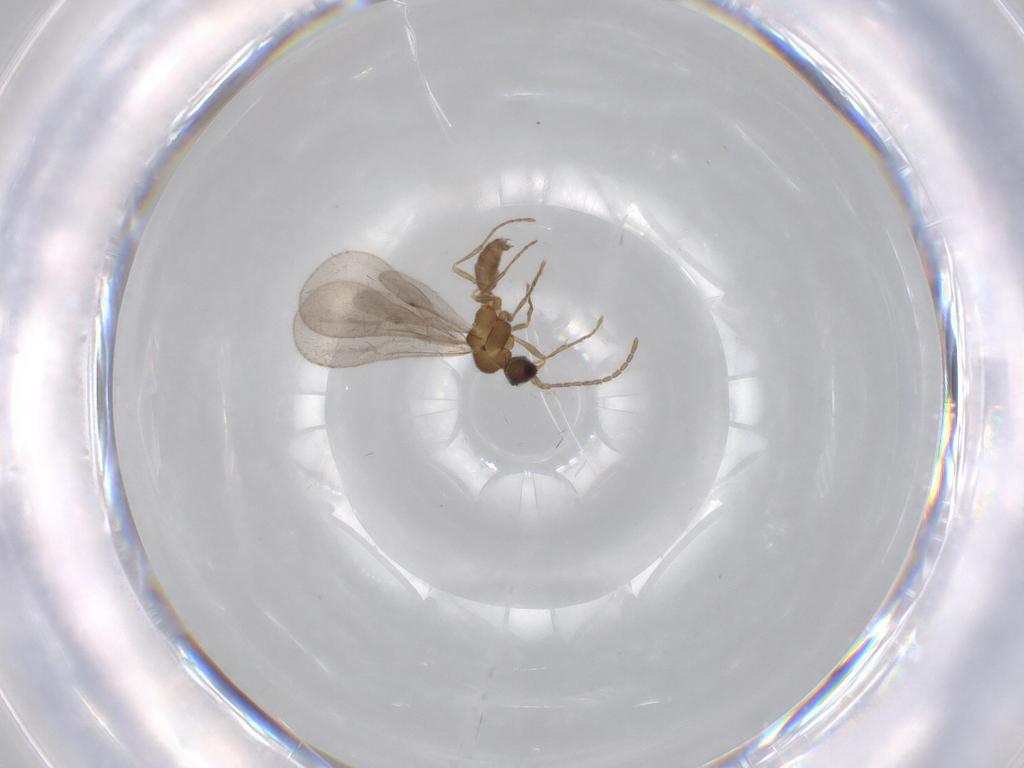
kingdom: Animalia
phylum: Arthropoda
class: Insecta
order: Hymenoptera
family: Formicidae
